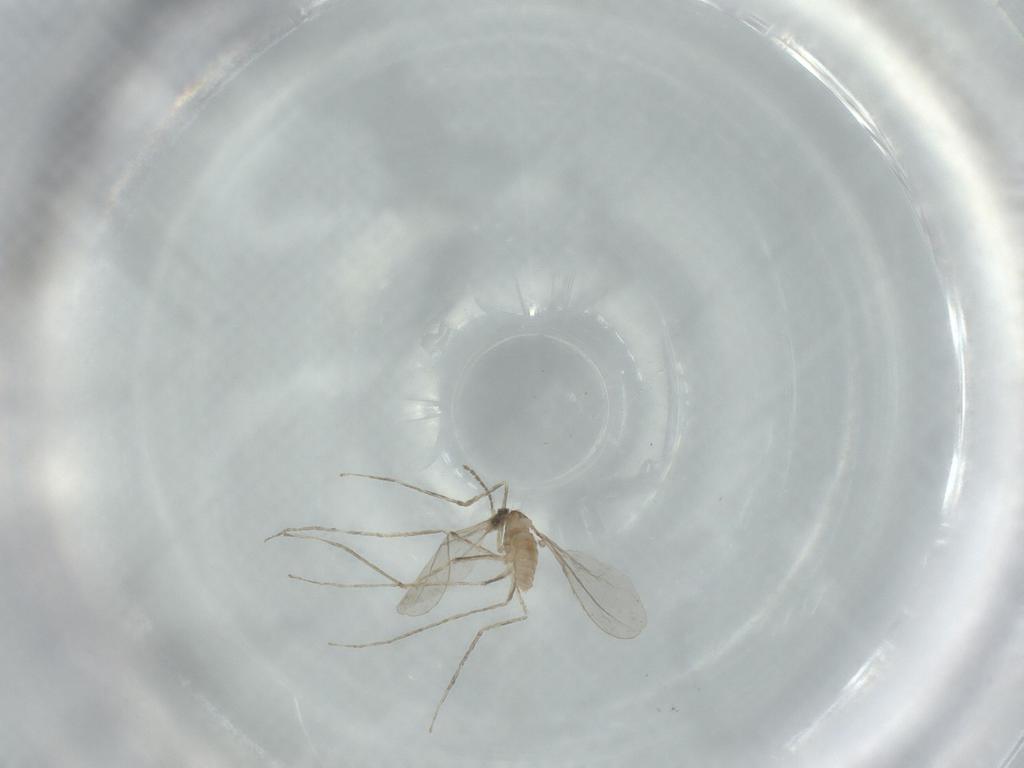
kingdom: Animalia
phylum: Arthropoda
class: Insecta
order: Diptera
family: Cecidomyiidae
